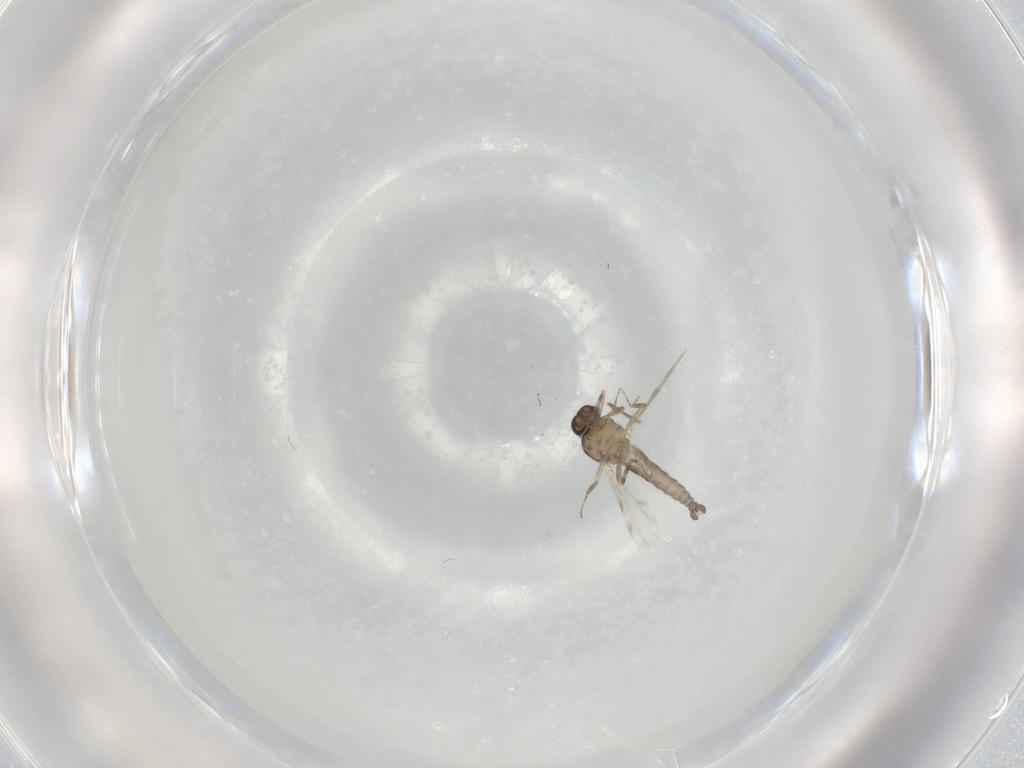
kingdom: Animalia
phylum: Arthropoda
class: Insecta
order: Diptera
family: Ceratopogonidae
